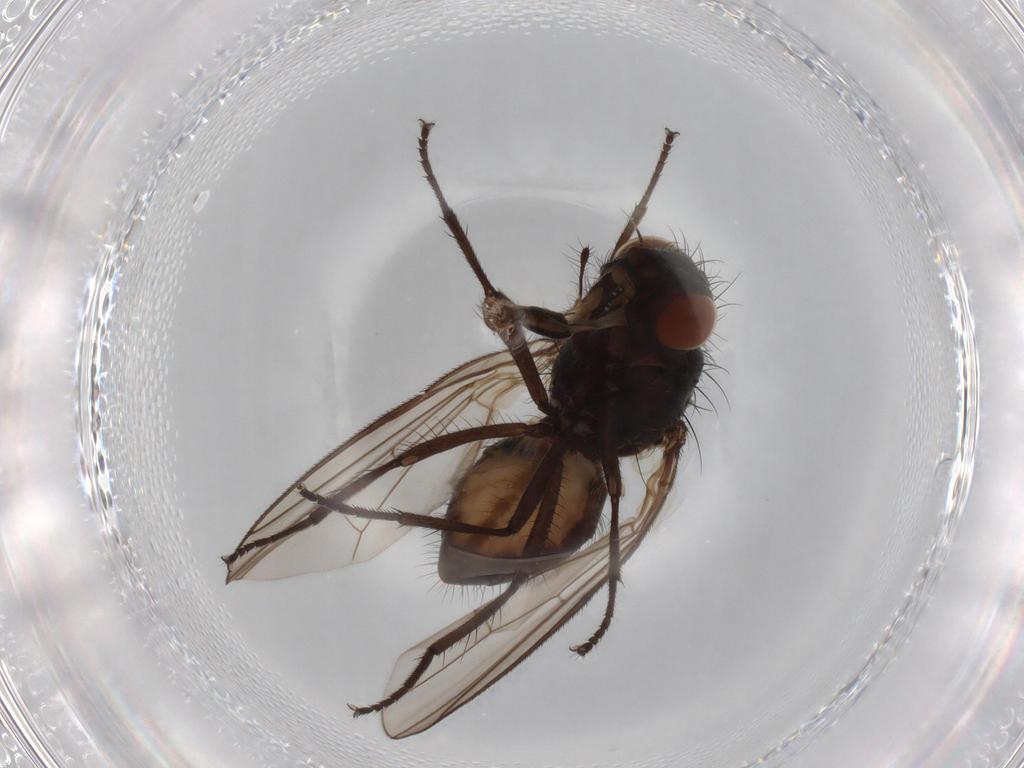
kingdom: Animalia
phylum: Arthropoda
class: Insecta
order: Diptera
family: Anthomyiidae
